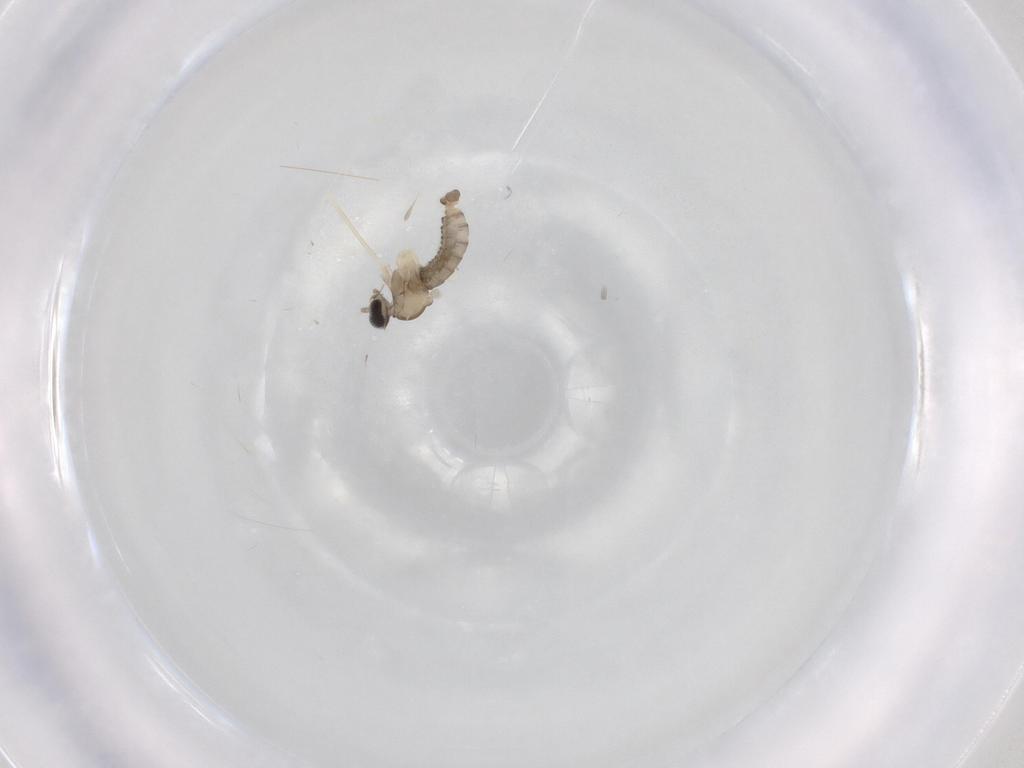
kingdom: Animalia
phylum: Arthropoda
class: Insecta
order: Diptera
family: Cecidomyiidae
